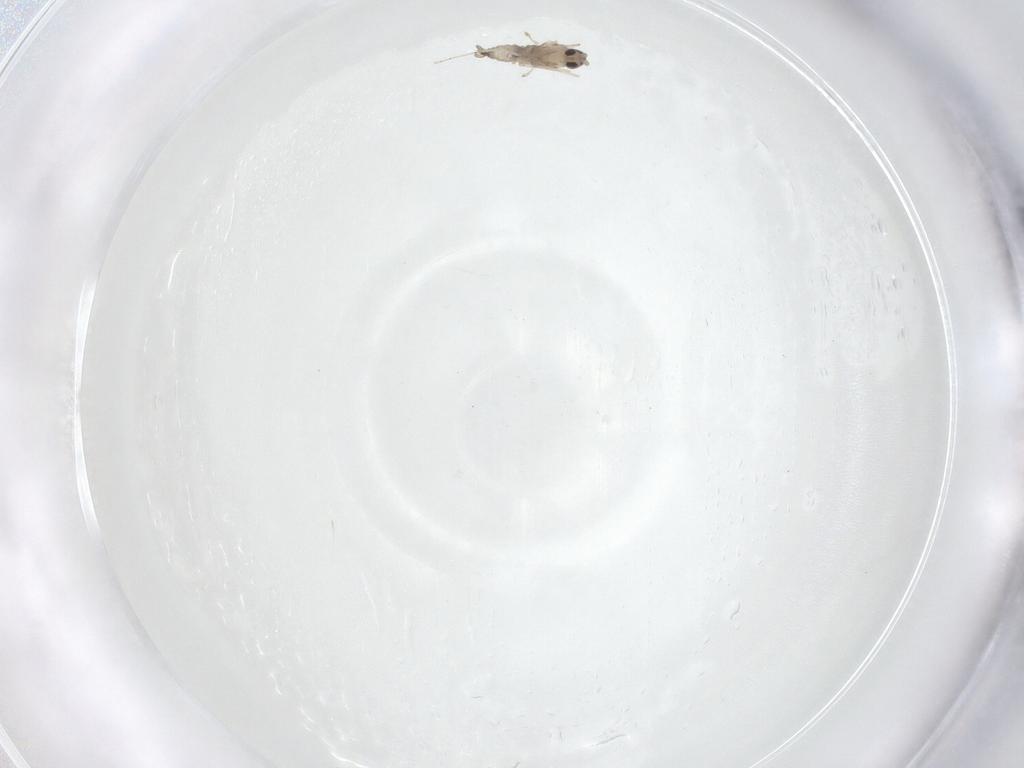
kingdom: Animalia
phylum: Arthropoda
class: Insecta
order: Diptera
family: Cecidomyiidae
